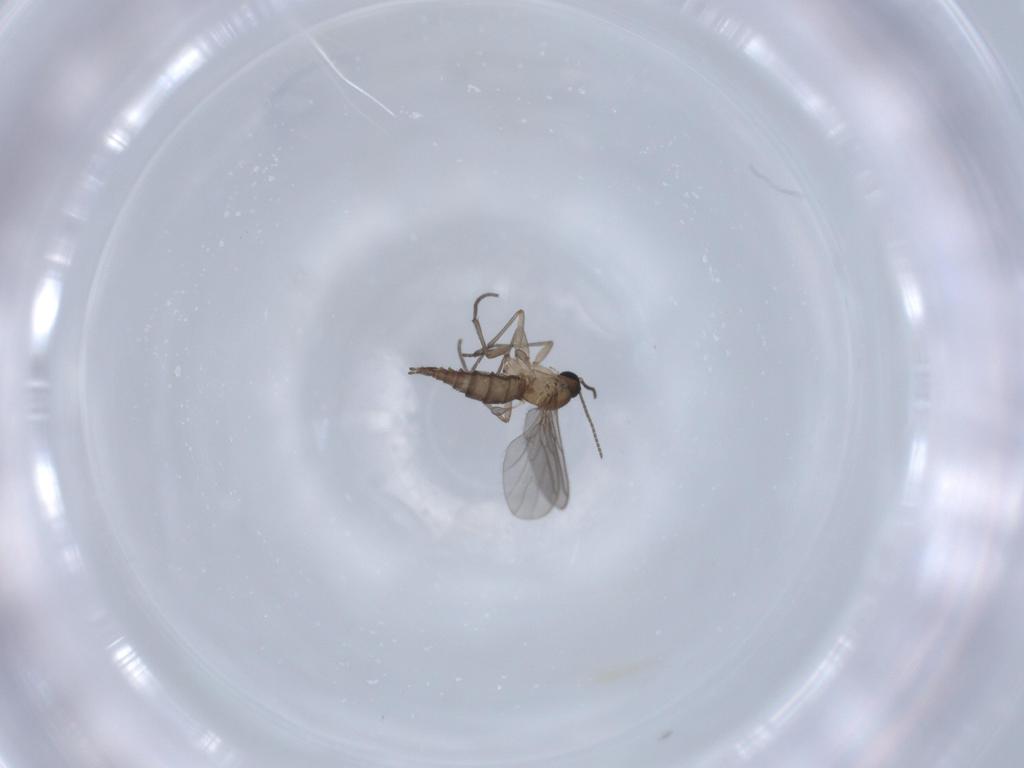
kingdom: Animalia
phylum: Arthropoda
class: Insecta
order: Diptera
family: Sciaridae
